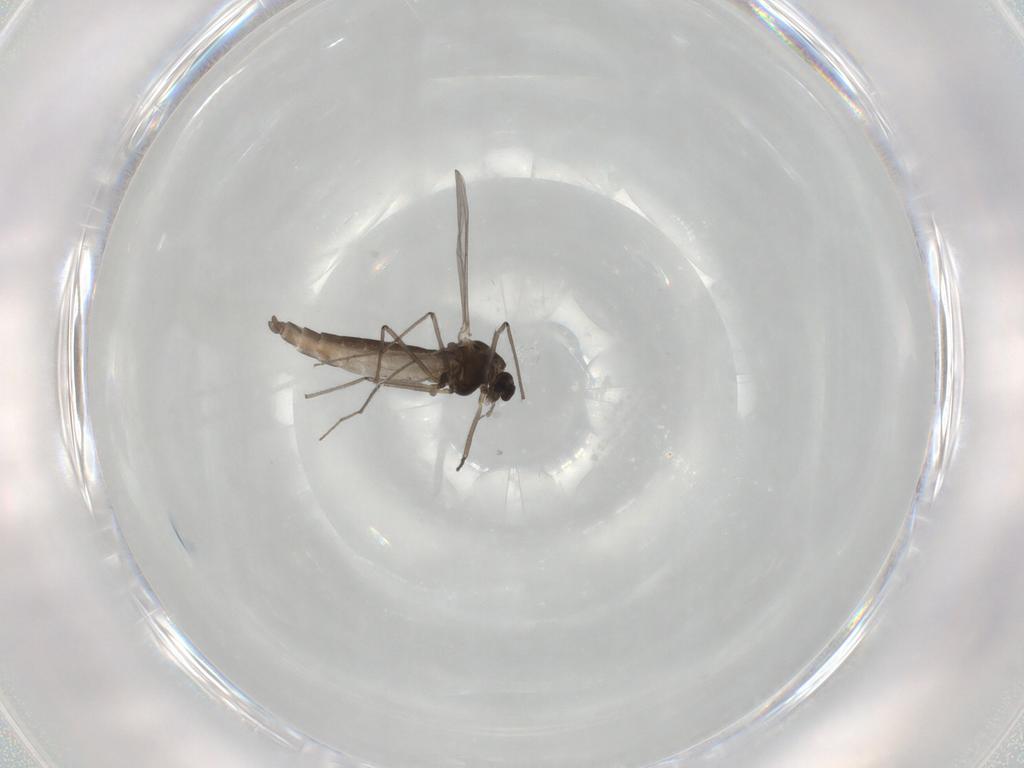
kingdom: Animalia
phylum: Arthropoda
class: Insecta
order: Diptera
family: Chironomidae
